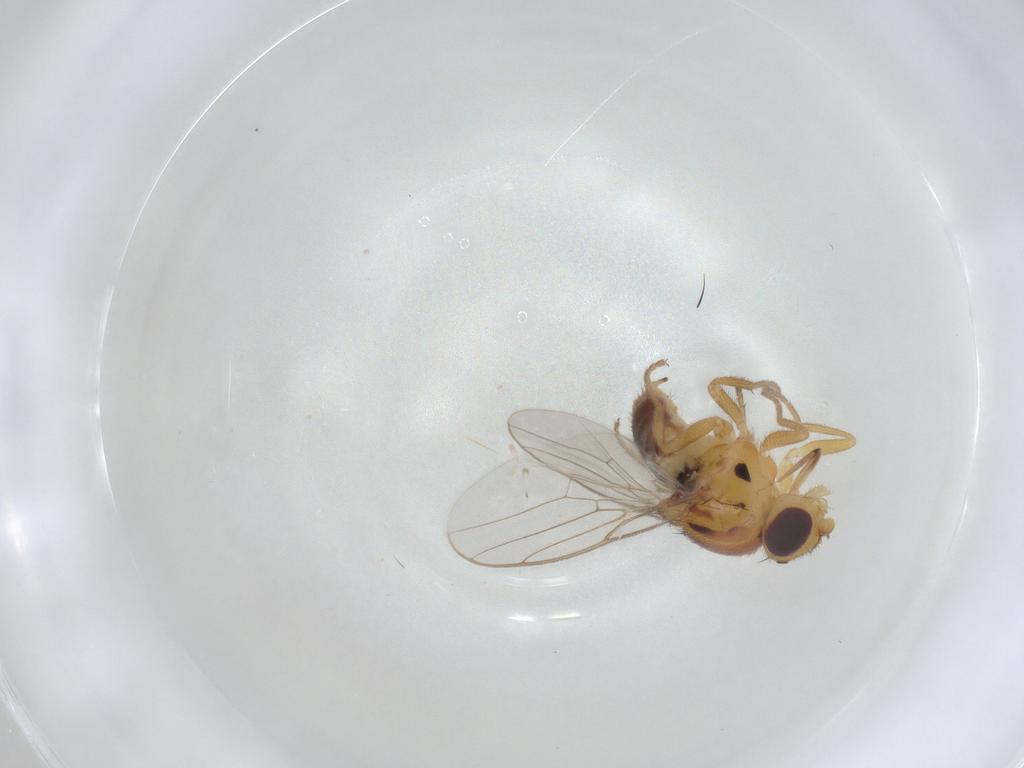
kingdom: Animalia
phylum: Arthropoda
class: Insecta
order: Diptera
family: Chloropidae
